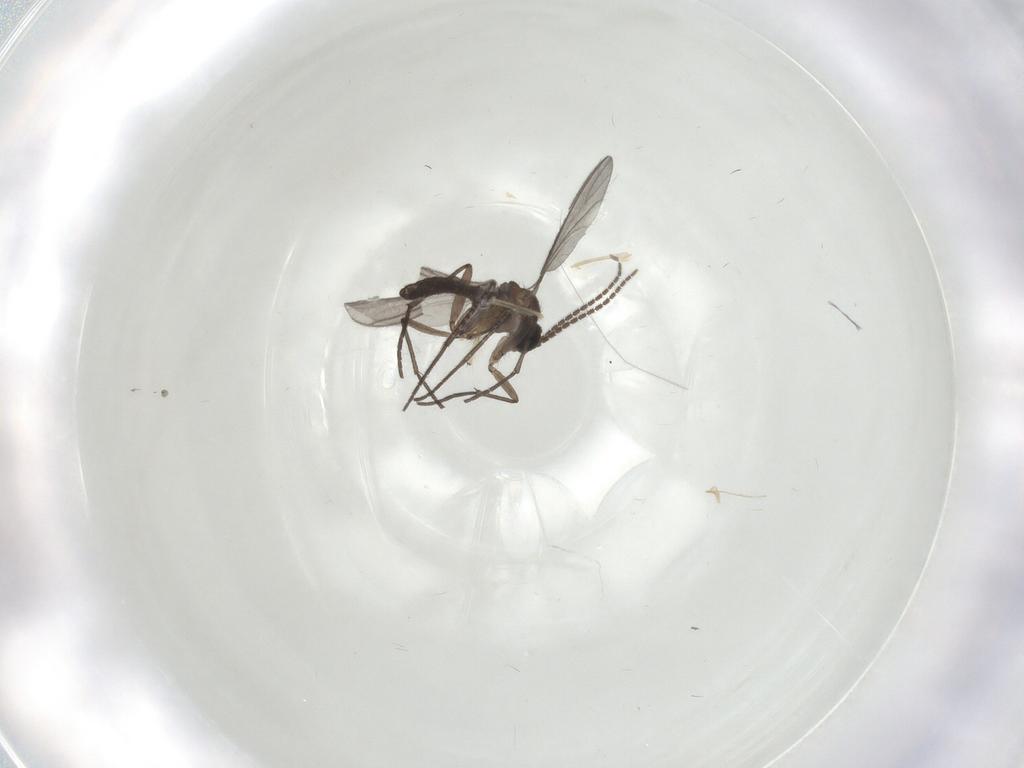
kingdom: Animalia
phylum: Arthropoda
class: Insecta
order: Diptera
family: Sciaridae
